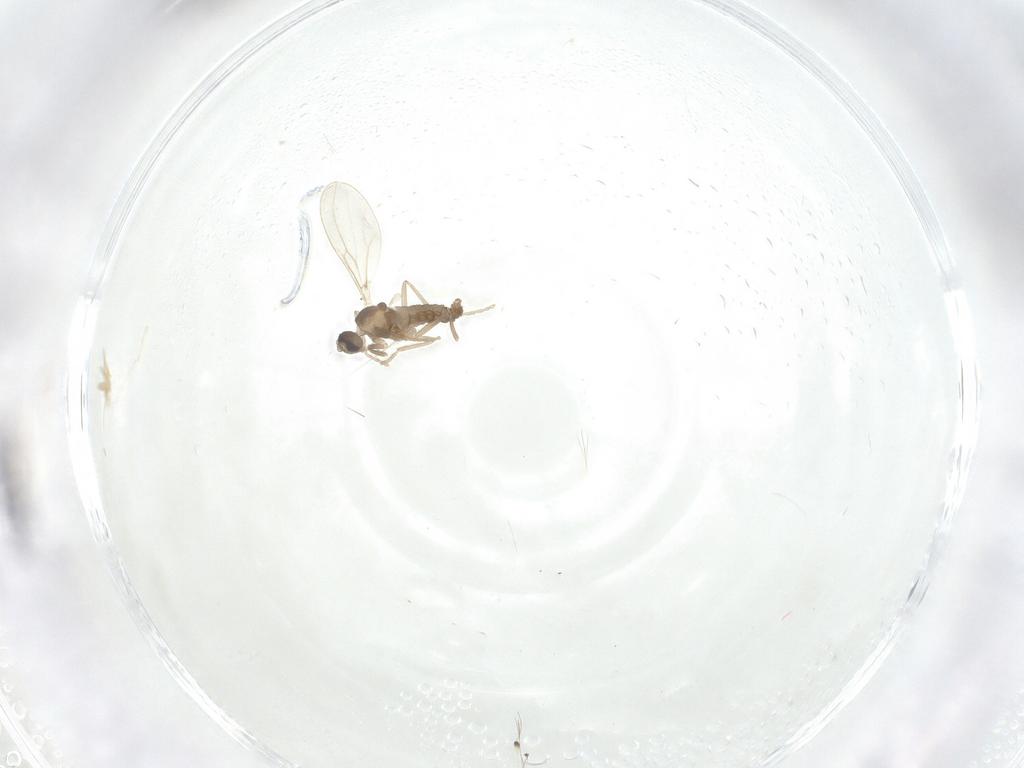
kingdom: Animalia
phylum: Arthropoda
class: Insecta
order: Diptera
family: Cecidomyiidae
